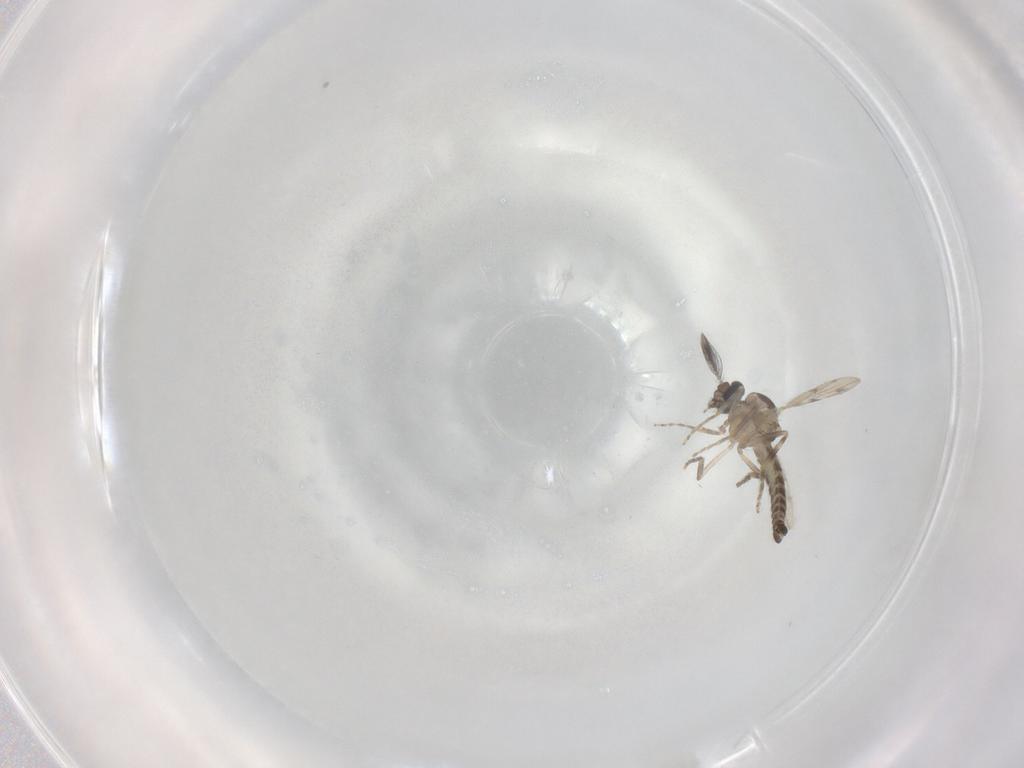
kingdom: Animalia
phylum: Arthropoda
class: Insecta
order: Diptera
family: Ceratopogonidae
